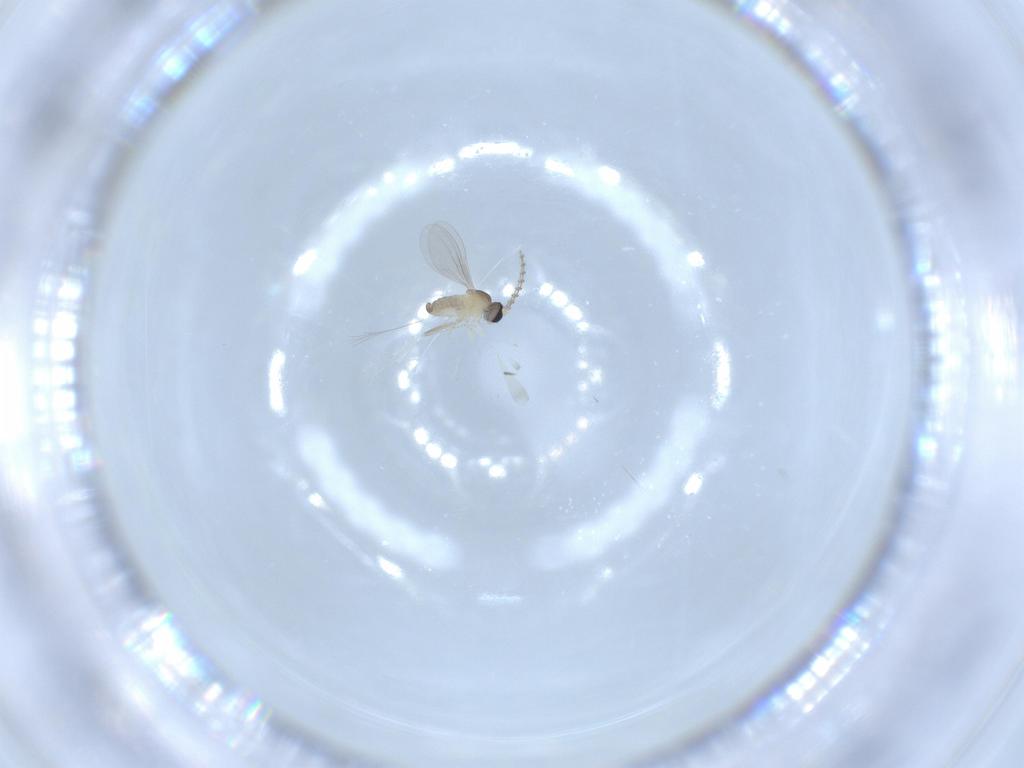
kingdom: Animalia
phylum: Arthropoda
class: Insecta
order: Diptera
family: Cecidomyiidae
